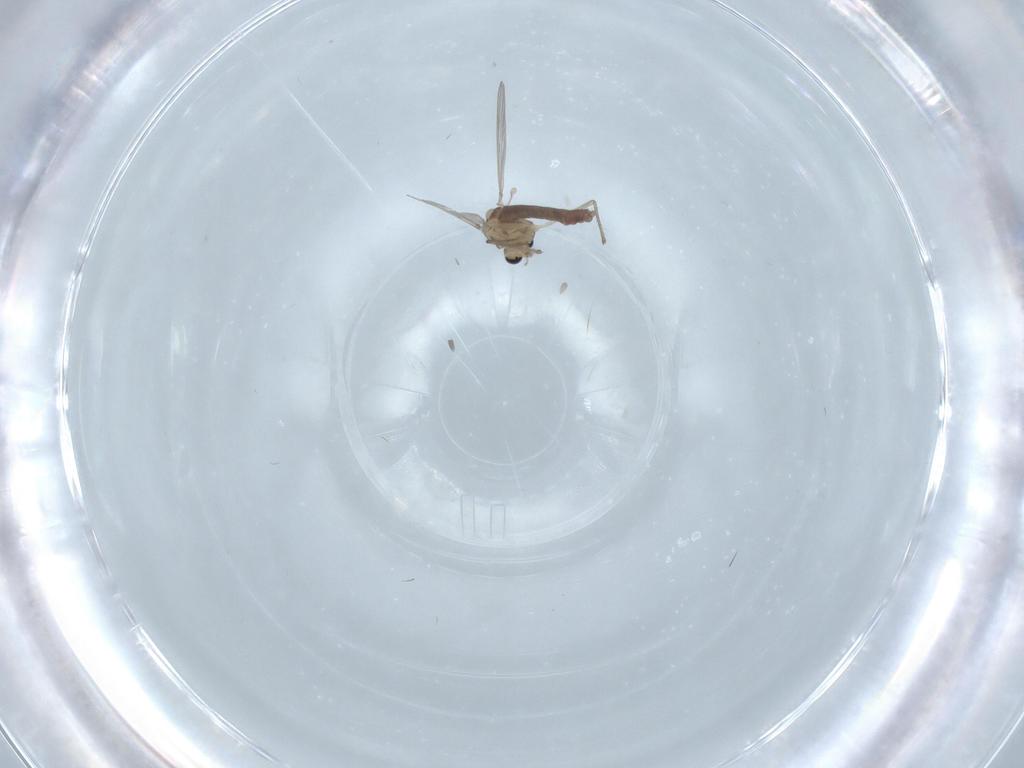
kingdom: Animalia
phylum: Arthropoda
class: Insecta
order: Diptera
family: Chironomidae
